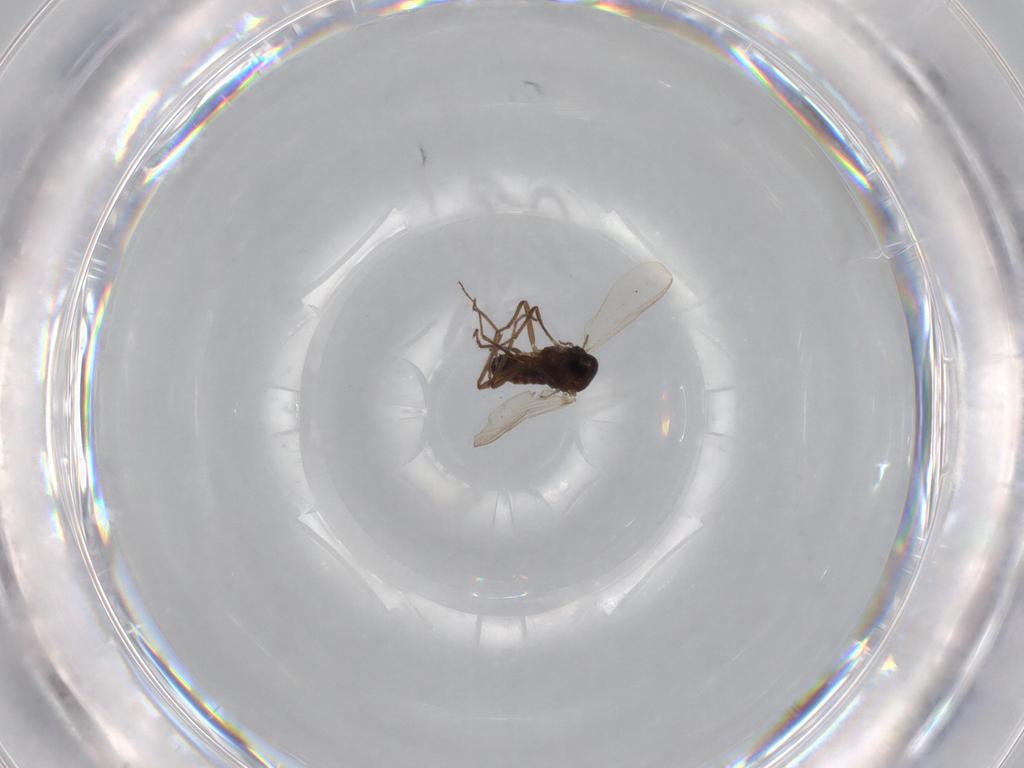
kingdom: Animalia
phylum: Arthropoda
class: Insecta
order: Diptera
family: Chironomidae
